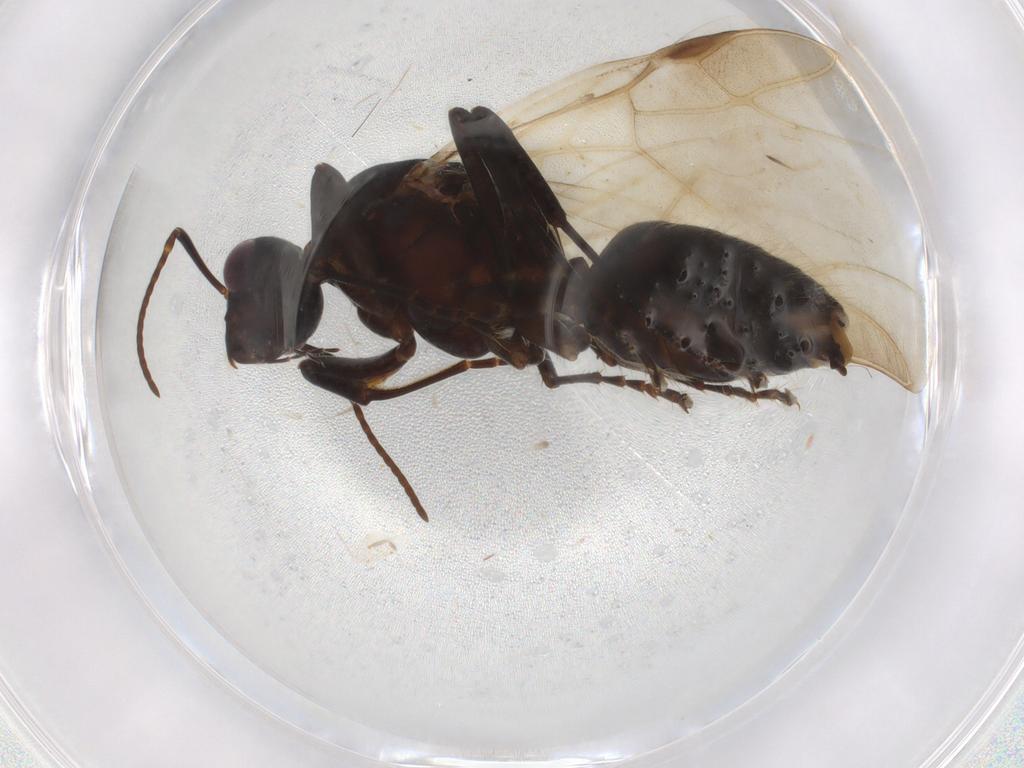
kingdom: Animalia
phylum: Arthropoda
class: Insecta
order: Hymenoptera
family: Formicidae
